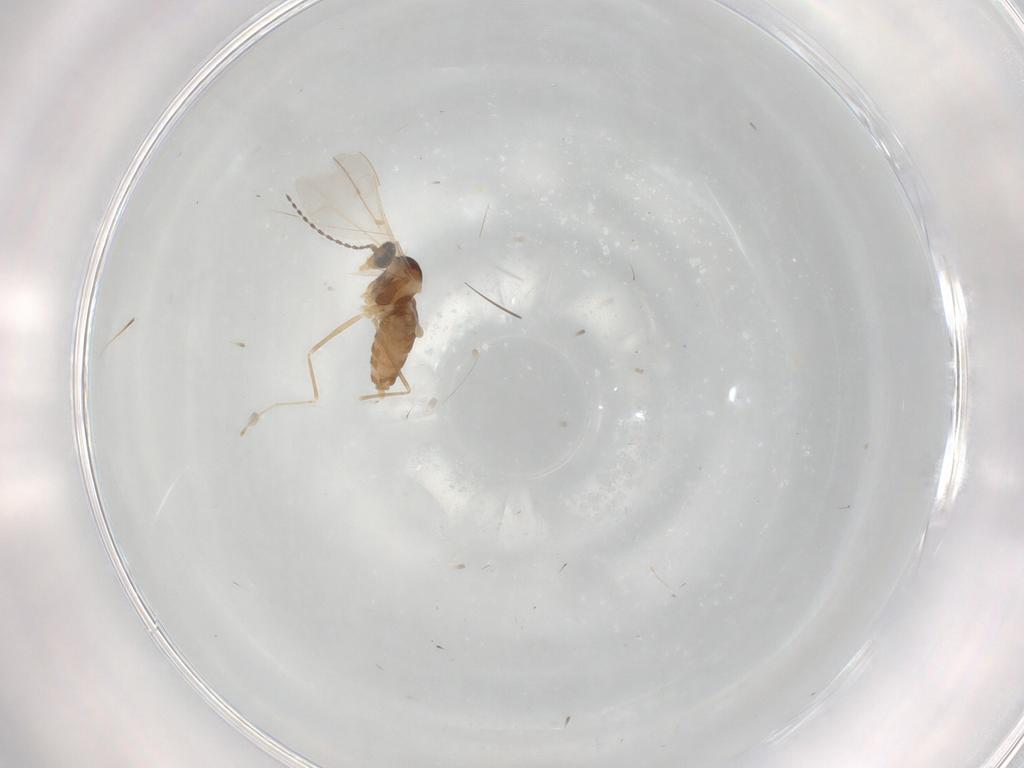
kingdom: Animalia
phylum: Arthropoda
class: Insecta
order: Diptera
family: Cecidomyiidae
